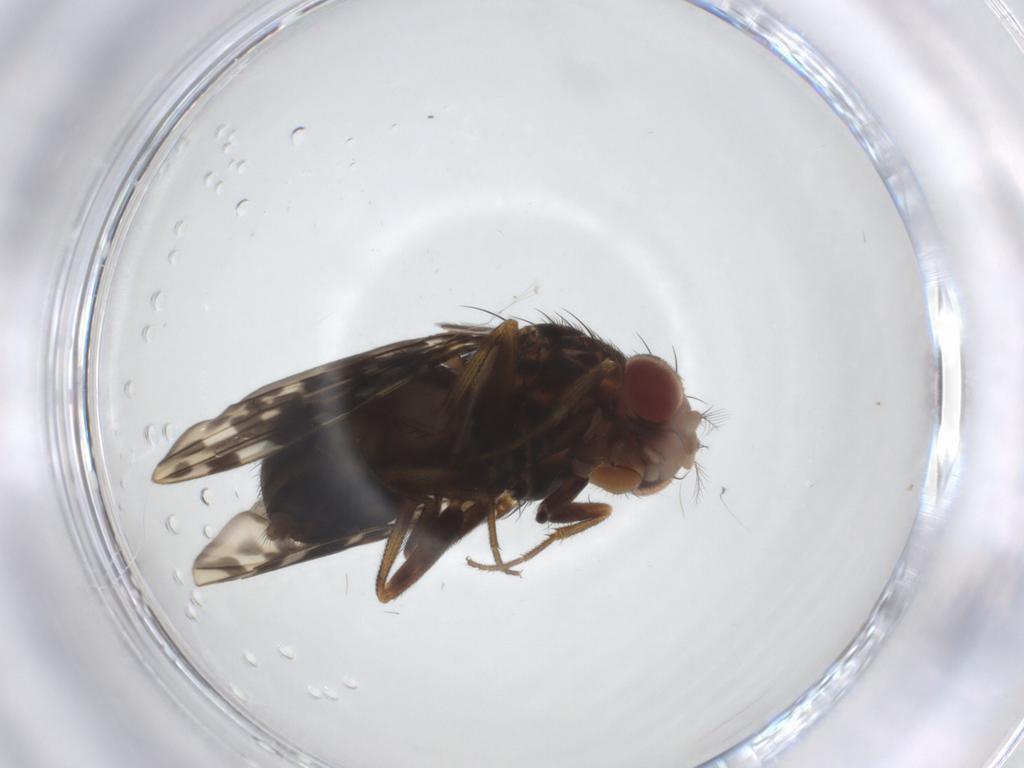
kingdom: Animalia
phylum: Arthropoda
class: Insecta
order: Diptera
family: Drosophilidae
